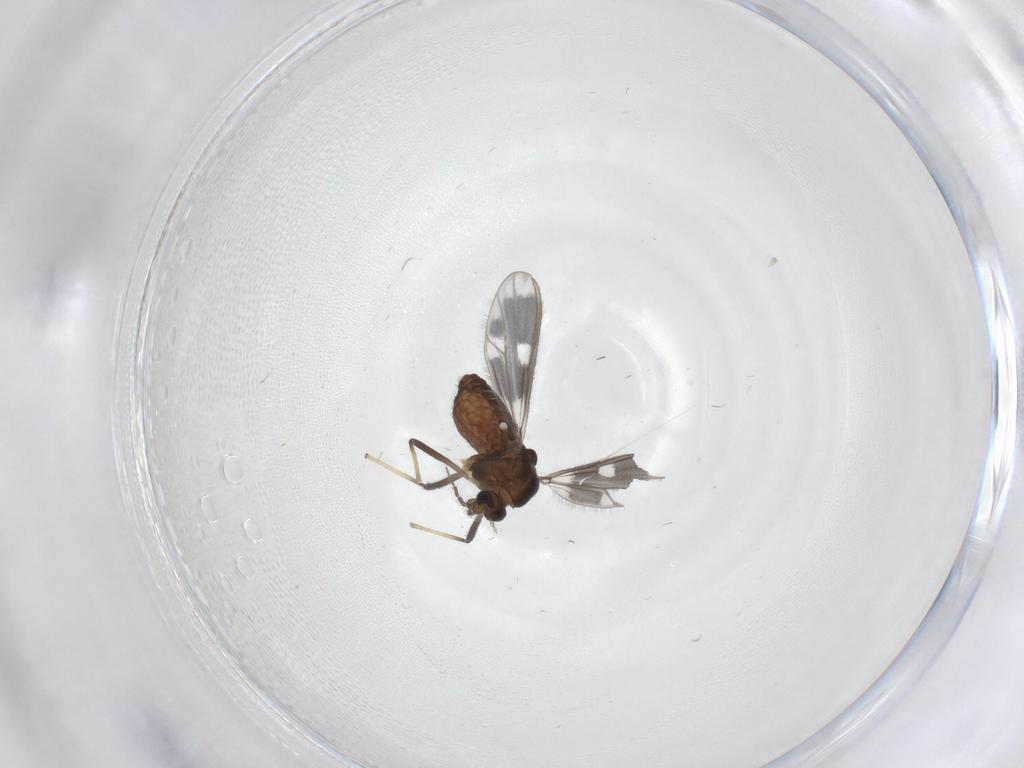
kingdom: Animalia
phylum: Arthropoda
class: Insecta
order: Diptera
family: Chironomidae
